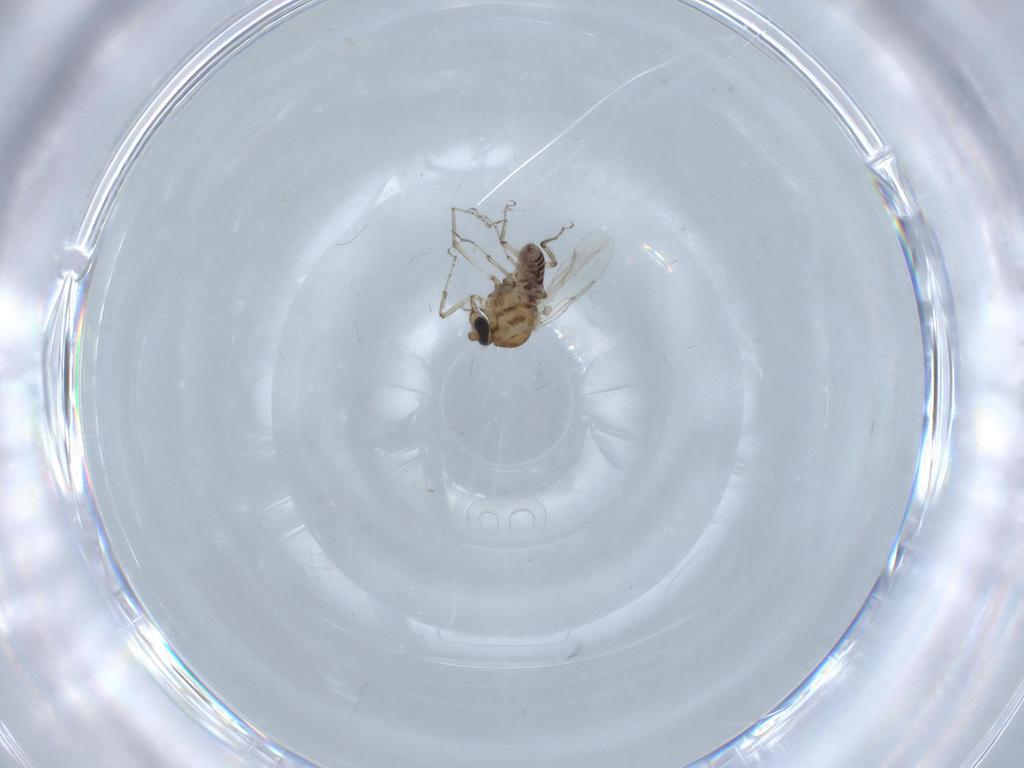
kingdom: Animalia
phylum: Arthropoda
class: Insecta
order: Diptera
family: Ceratopogonidae
